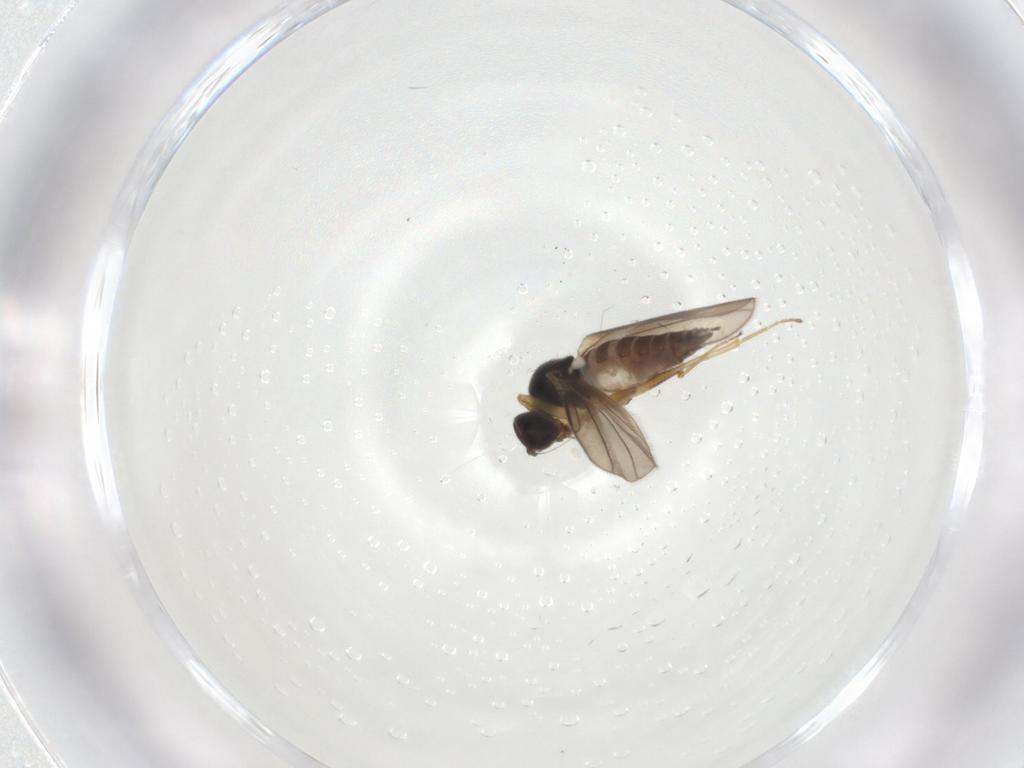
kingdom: Animalia
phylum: Arthropoda
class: Insecta
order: Diptera
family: Hybotidae
